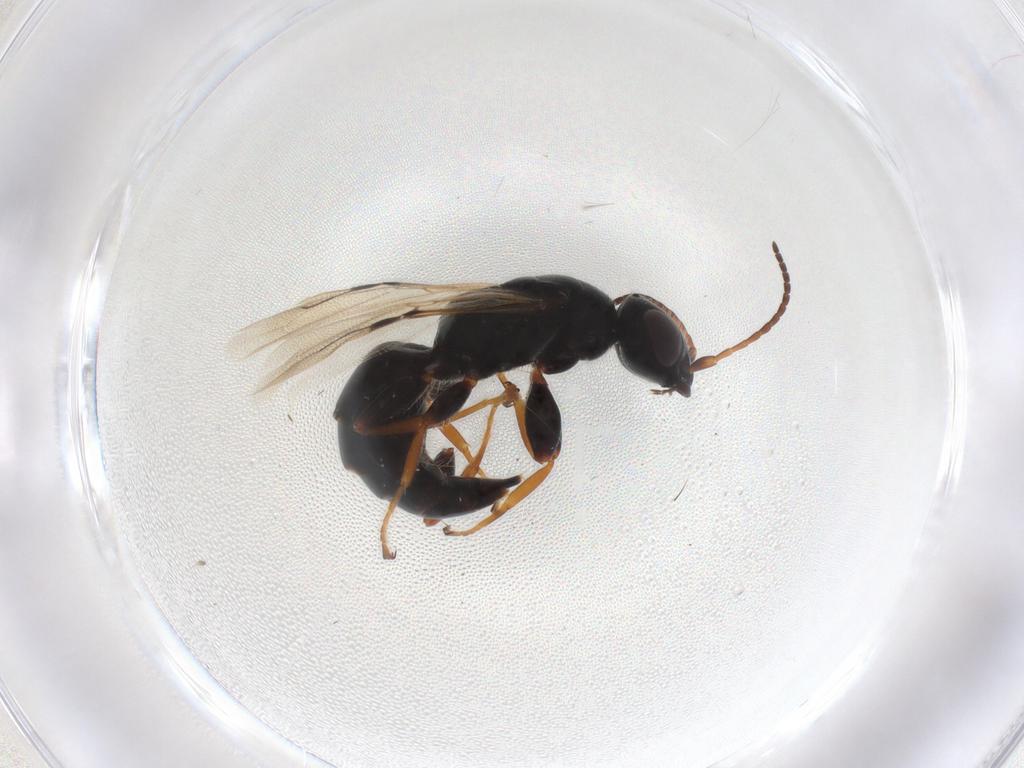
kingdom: Animalia
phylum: Arthropoda
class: Insecta
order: Hymenoptera
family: Bethylidae
